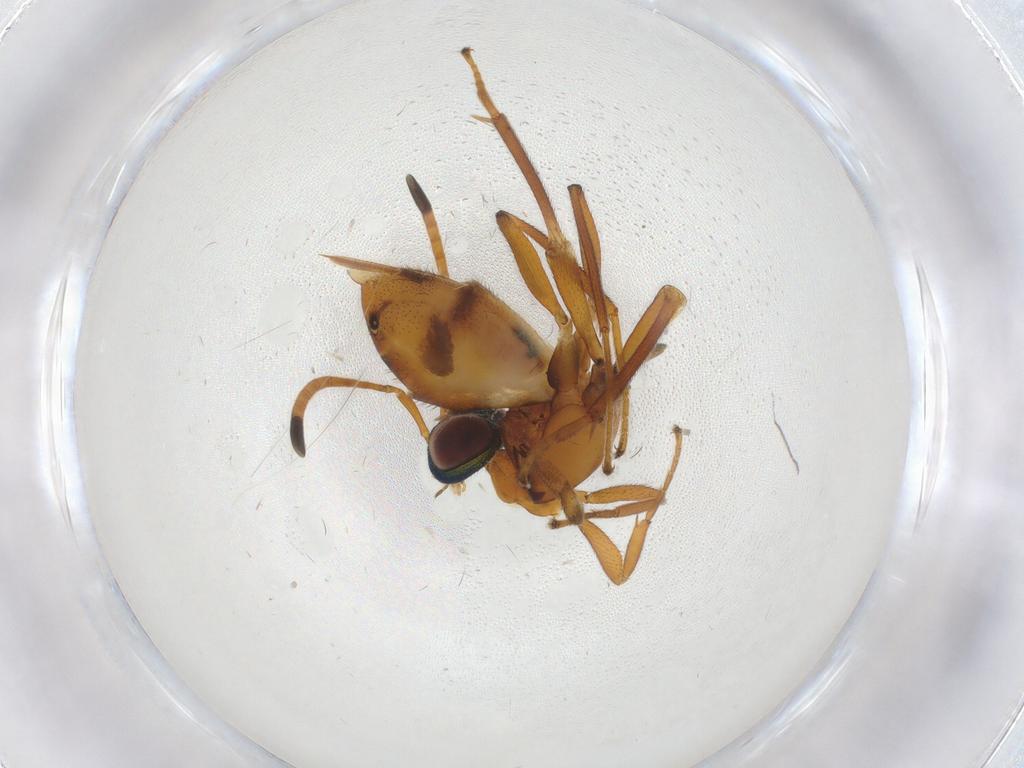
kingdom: Animalia
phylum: Arthropoda
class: Insecta
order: Hymenoptera
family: Eupelmidae
